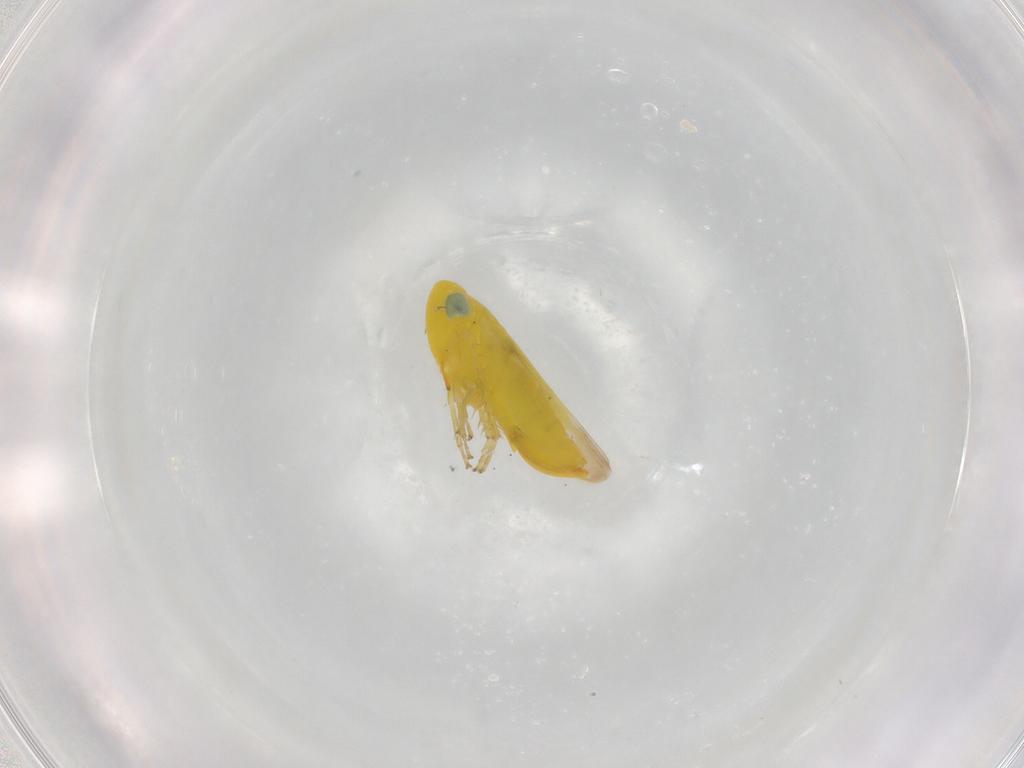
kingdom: Animalia
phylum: Arthropoda
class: Insecta
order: Hemiptera
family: Cicadellidae
